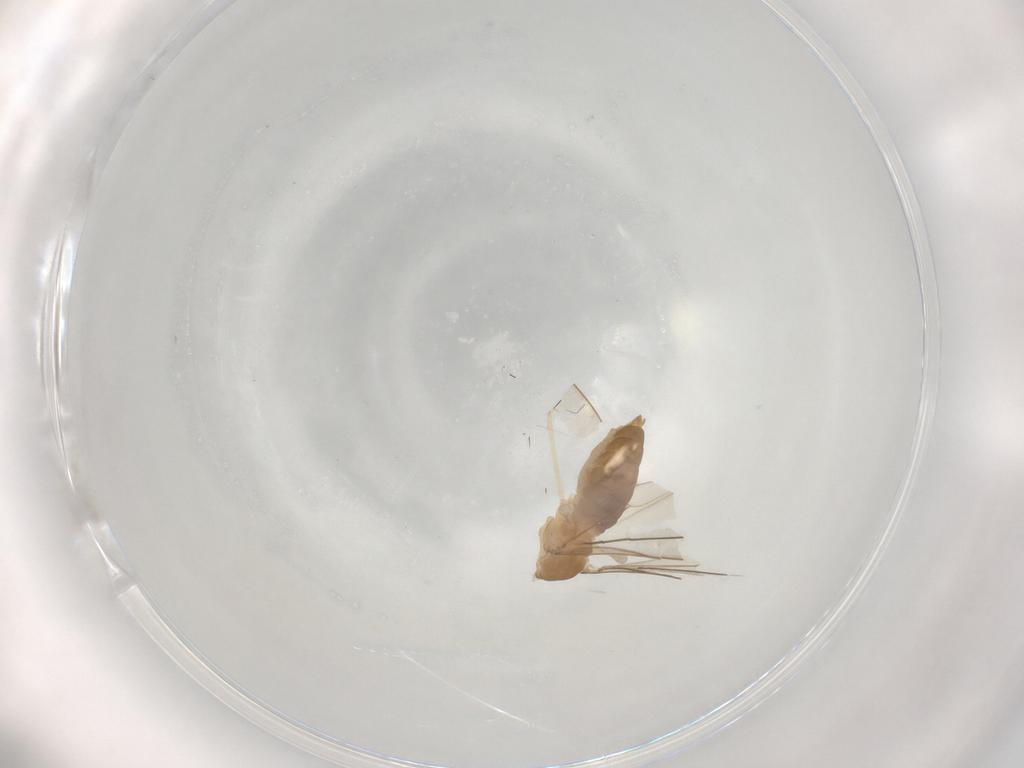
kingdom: Animalia
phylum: Arthropoda
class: Insecta
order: Diptera
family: Cecidomyiidae
